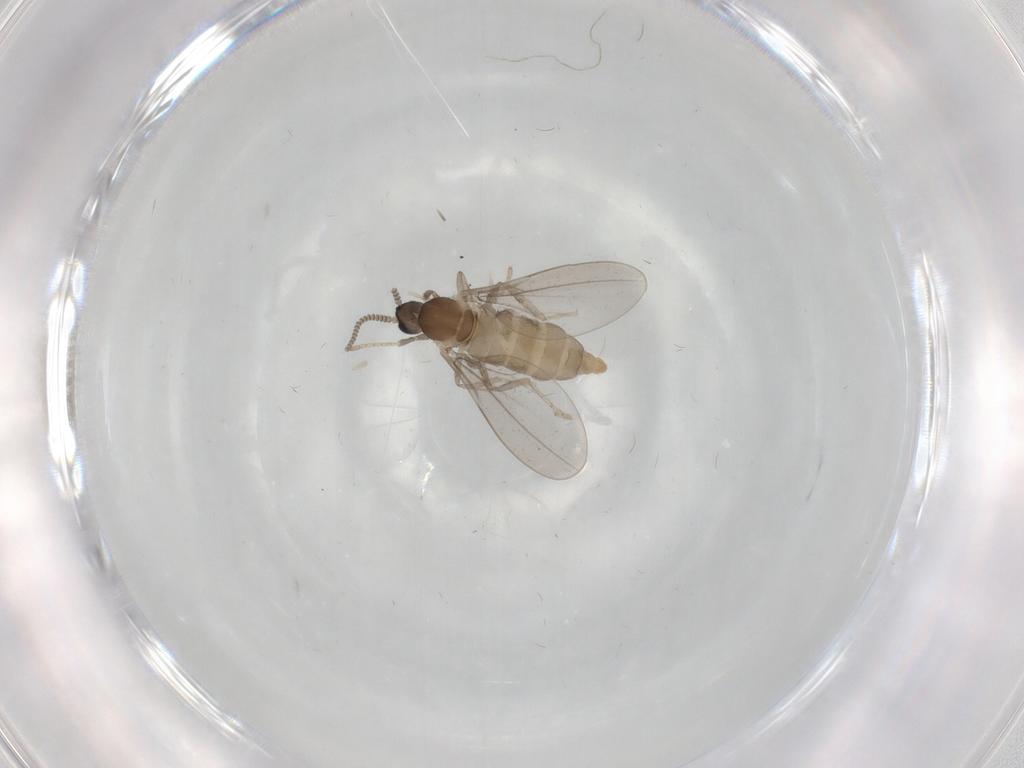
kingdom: Animalia
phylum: Arthropoda
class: Insecta
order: Diptera
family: Cecidomyiidae
